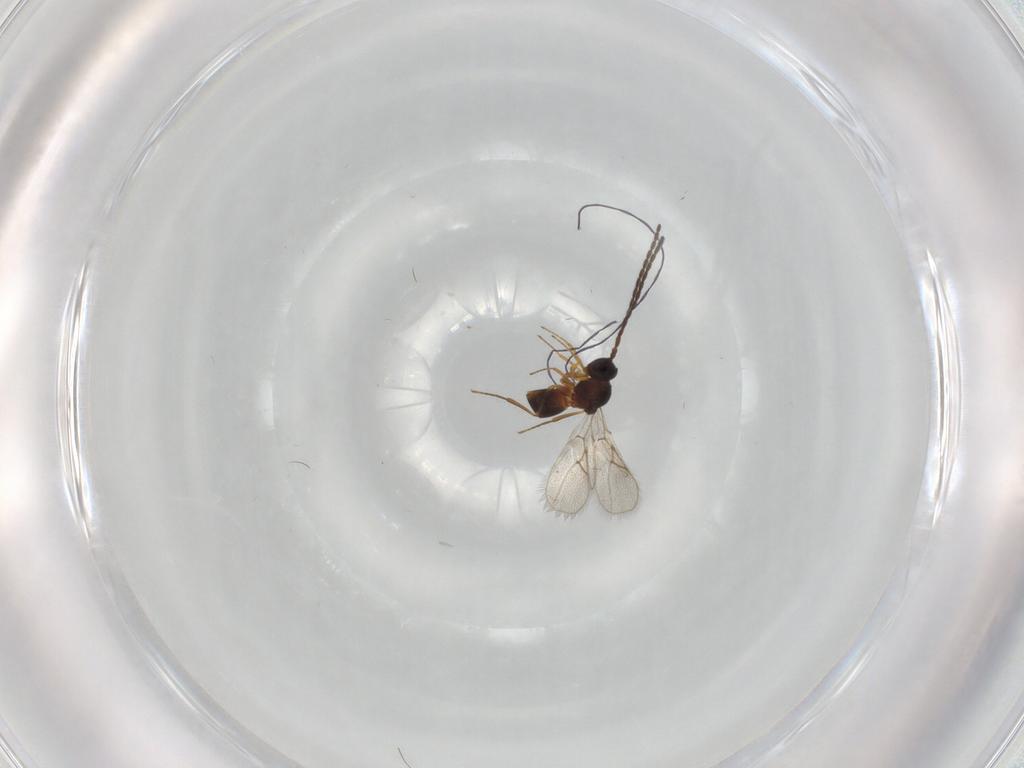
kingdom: Animalia
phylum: Arthropoda
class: Insecta
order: Hymenoptera
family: Figitidae
